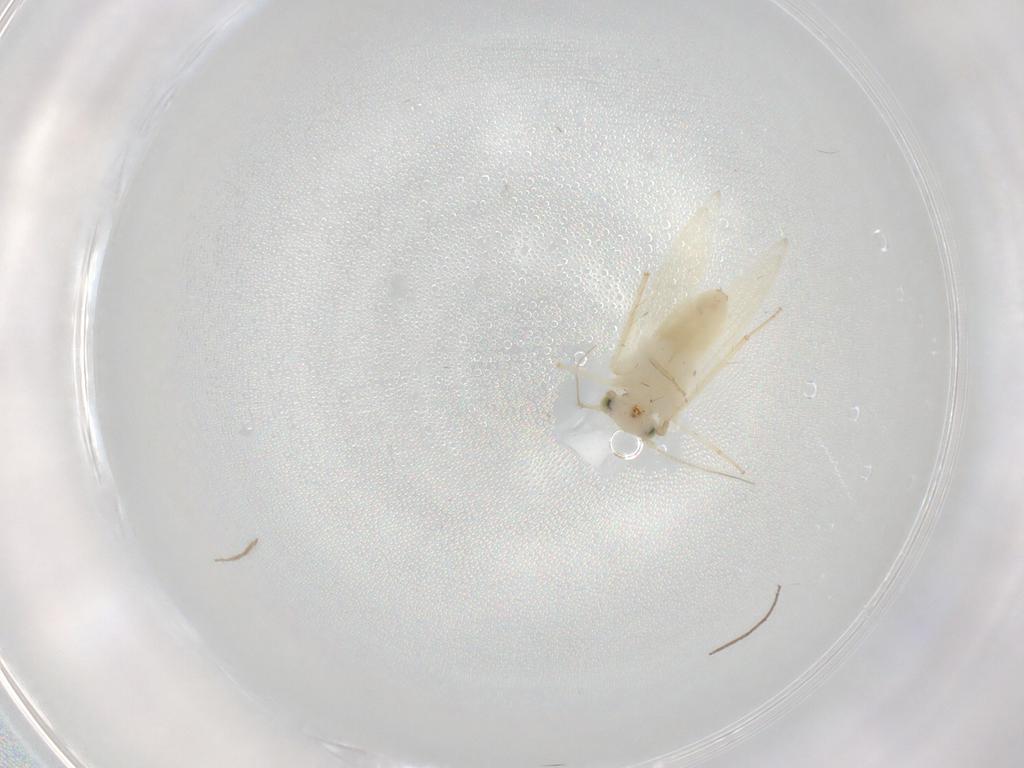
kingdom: Animalia
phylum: Arthropoda
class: Insecta
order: Psocodea
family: Lepidopsocidae
